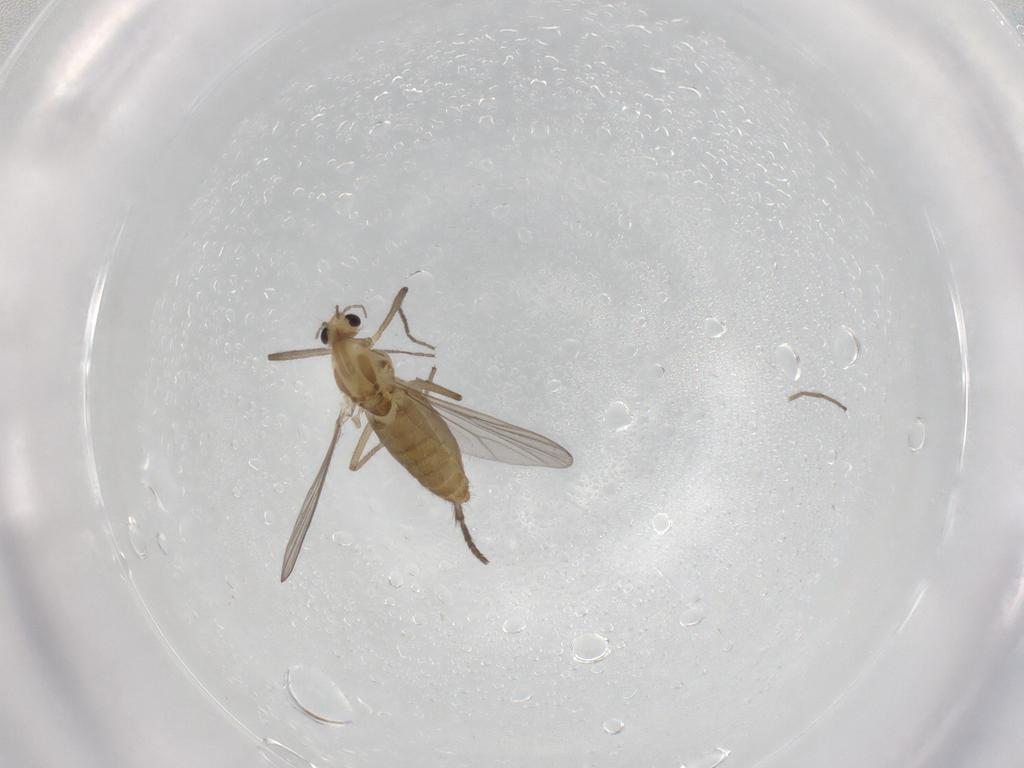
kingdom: Animalia
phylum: Arthropoda
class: Insecta
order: Diptera
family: Chironomidae
